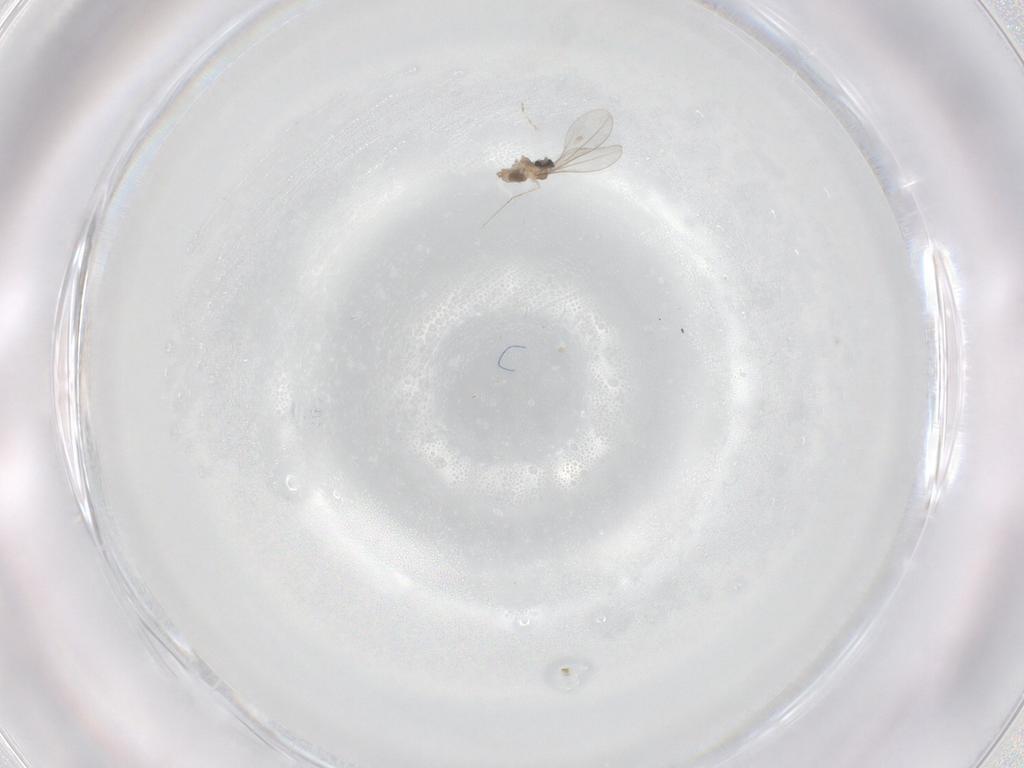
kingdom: Animalia
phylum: Arthropoda
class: Insecta
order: Diptera
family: Cecidomyiidae
